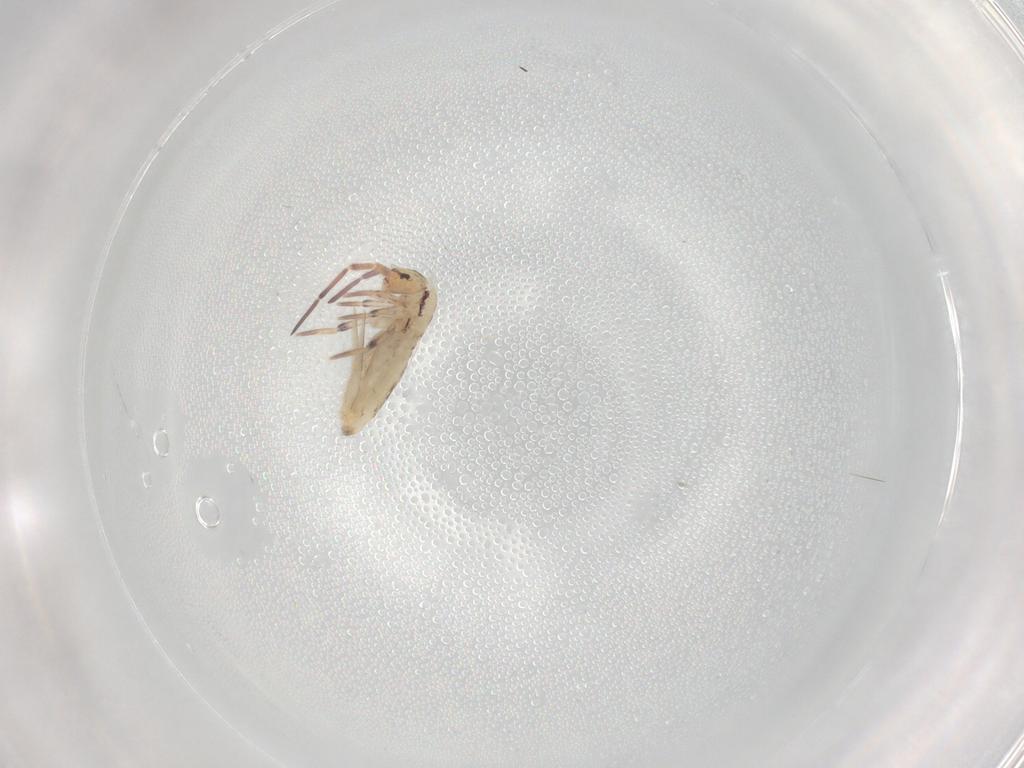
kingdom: Animalia
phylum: Arthropoda
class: Collembola
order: Entomobryomorpha
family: Entomobryidae
